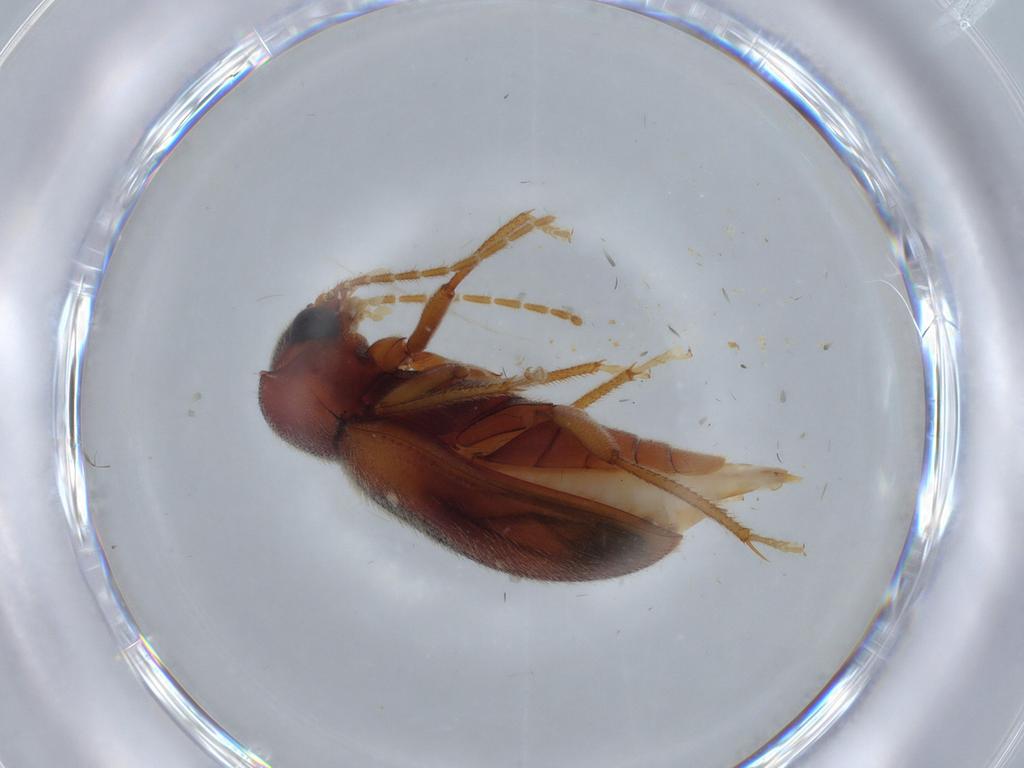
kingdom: Animalia
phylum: Arthropoda
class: Insecta
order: Coleoptera
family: Ptilodactylidae
